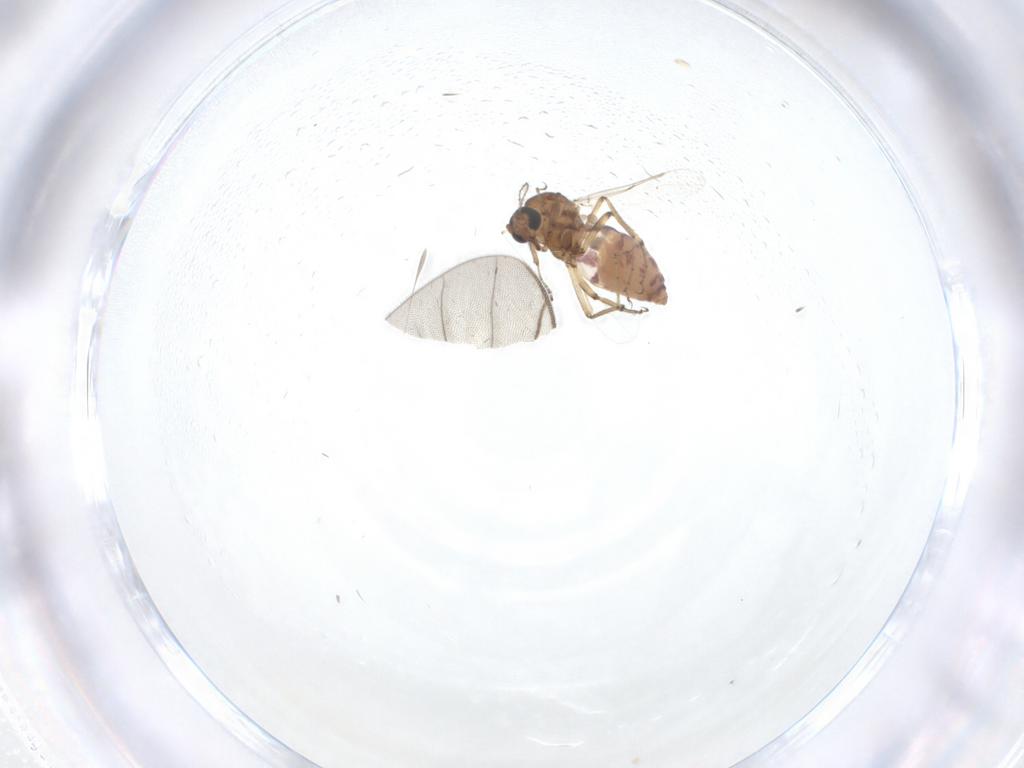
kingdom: Animalia
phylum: Arthropoda
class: Insecta
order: Diptera
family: Ceratopogonidae
